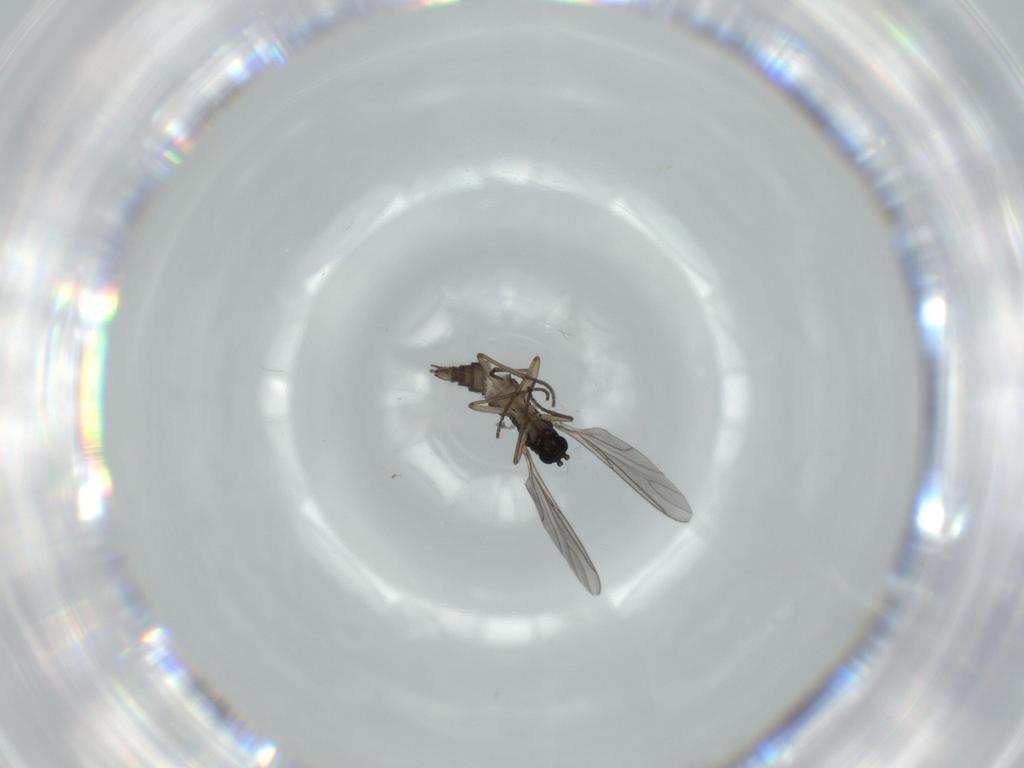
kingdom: Animalia
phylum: Arthropoda
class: Insecta
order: Diptera
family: Sciaridae
